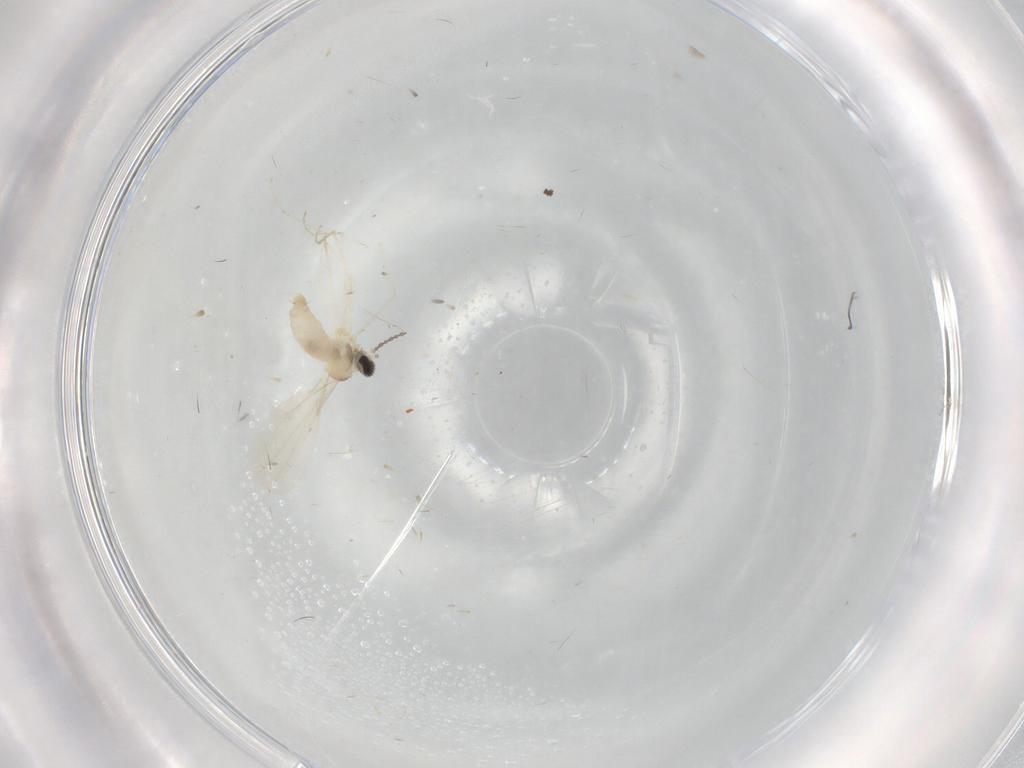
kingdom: Animalia
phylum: Arthropoda
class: Insecta
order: Diptera
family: Phoridae
